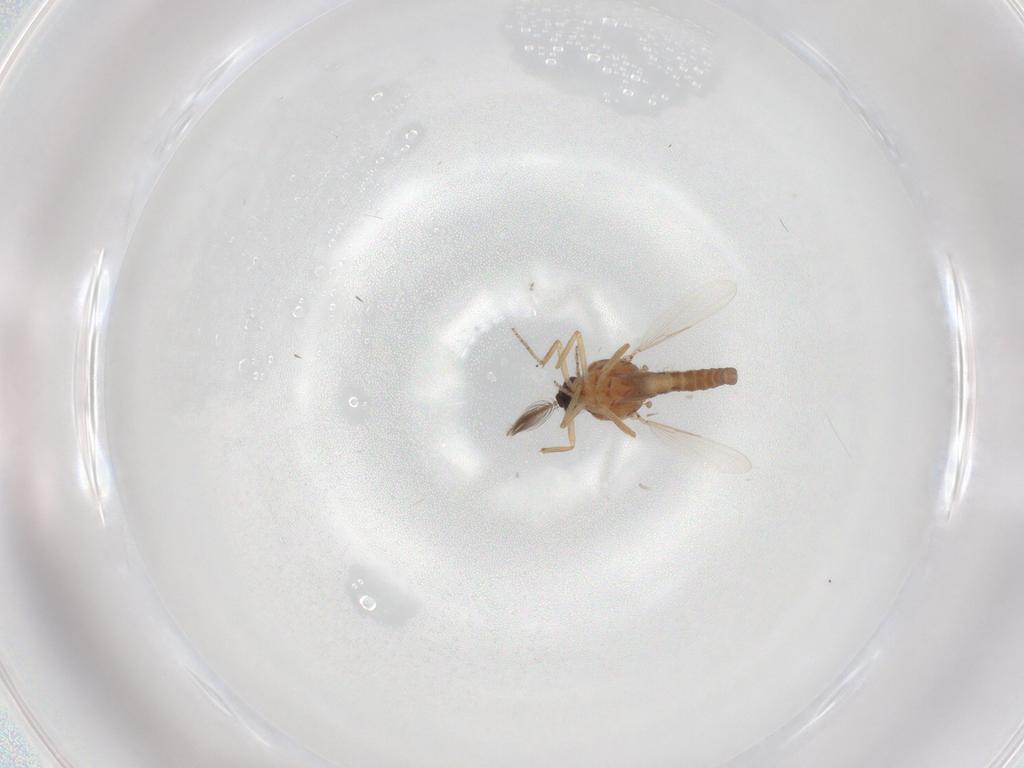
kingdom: Animalia
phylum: Arthropoda
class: Insecta
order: Diptera
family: Ceratopogonidae
